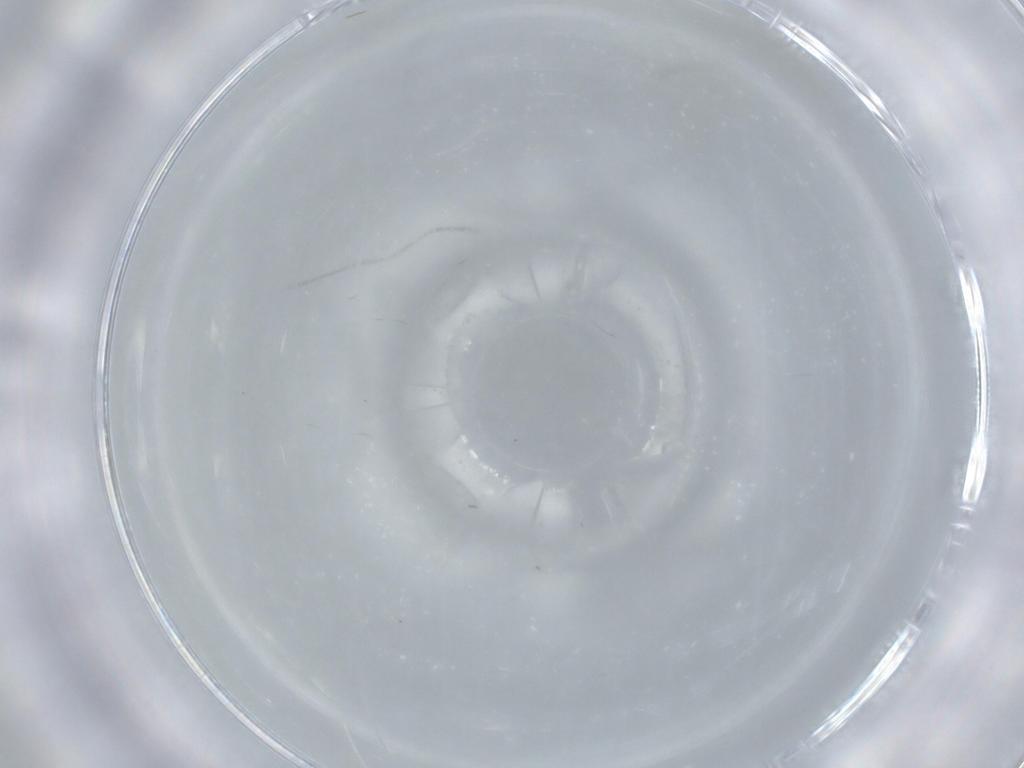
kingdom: Animalia
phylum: Arthropoda
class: Insecta
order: Diptera
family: Cecidomyiidae
